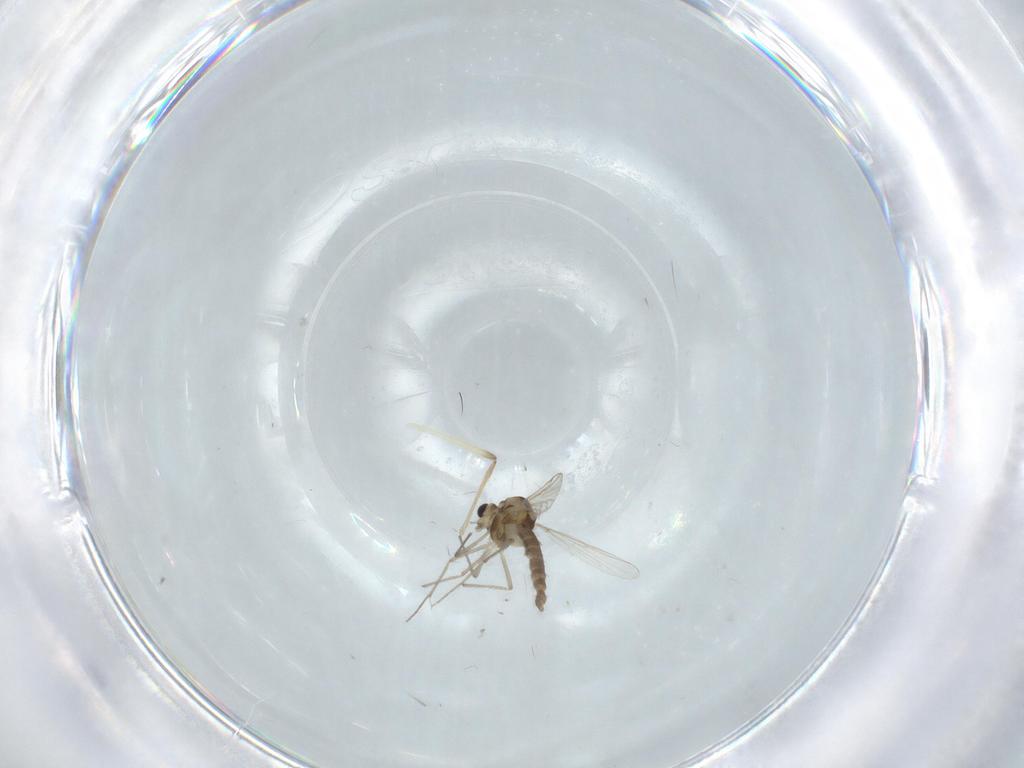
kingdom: Animalia
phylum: Arthropoda
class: Insecta
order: Diptera
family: Chironomidae
